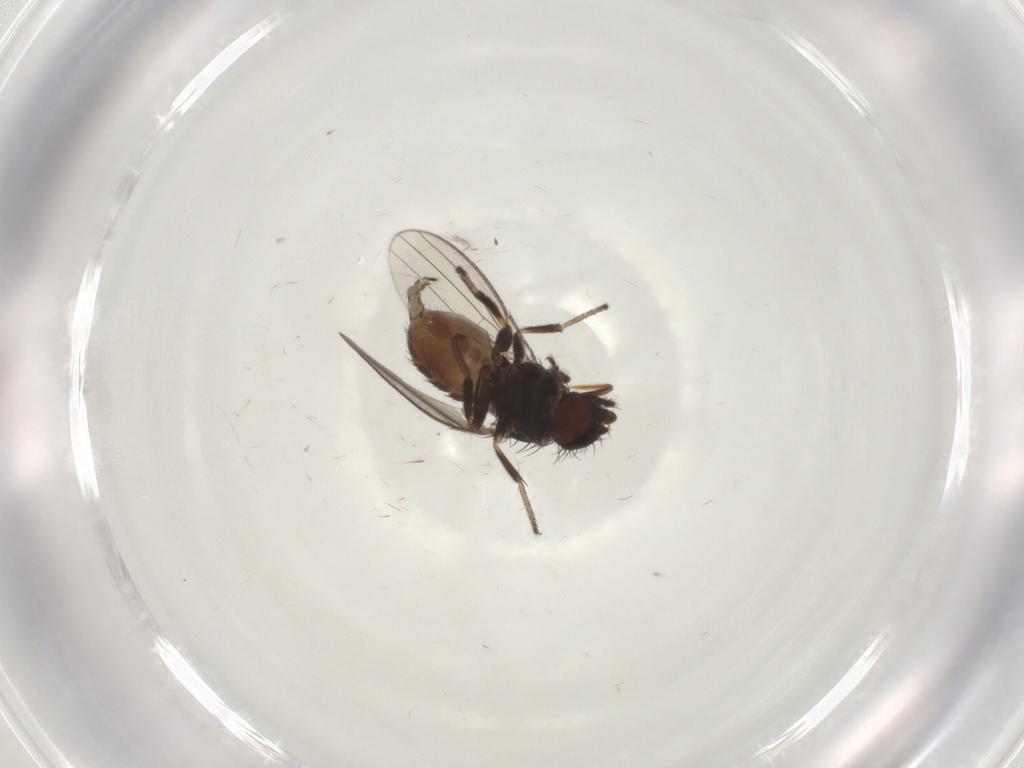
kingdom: Animalia
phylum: Arthropoda
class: Insecta
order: Diptera
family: Milichiidae
